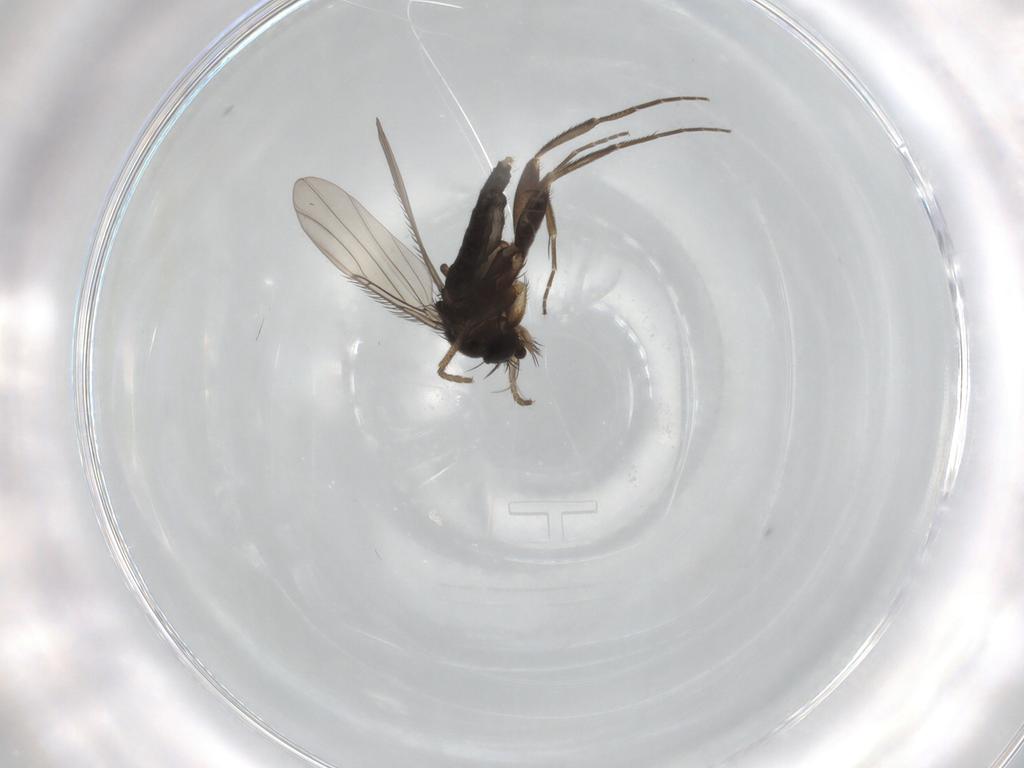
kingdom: Animalia
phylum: Arthropoda
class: Insecta
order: Diptera
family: Phoridae
